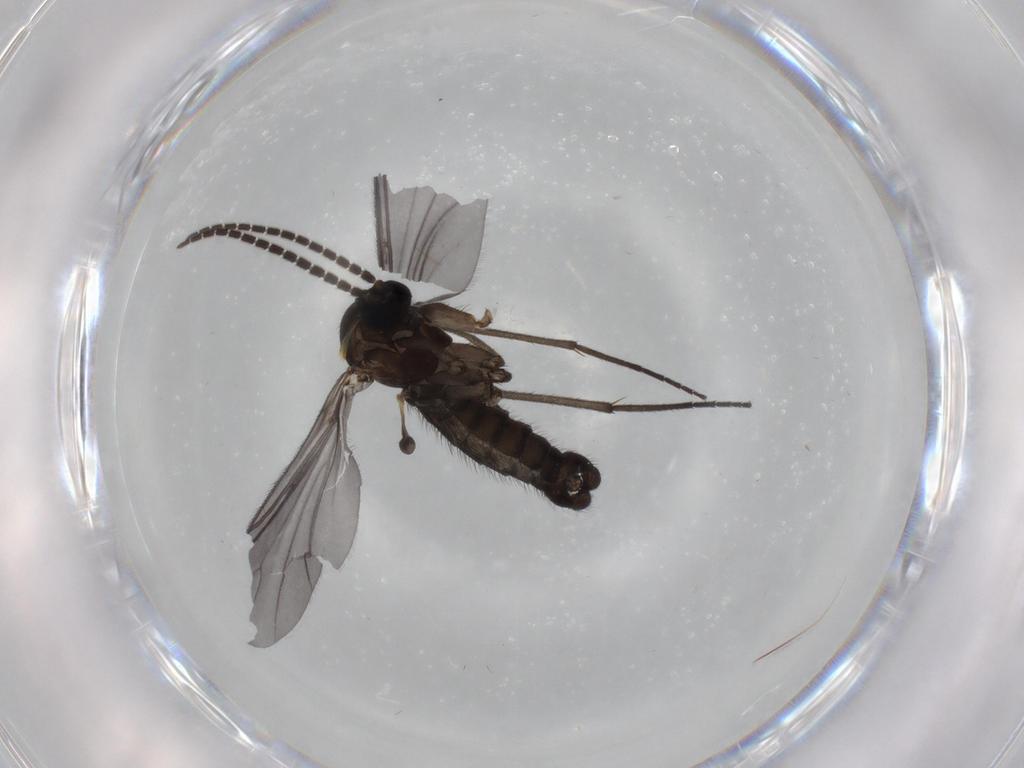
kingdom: Animalia
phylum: Arthropoda
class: Insecta
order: Diptera
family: Sciaridae
